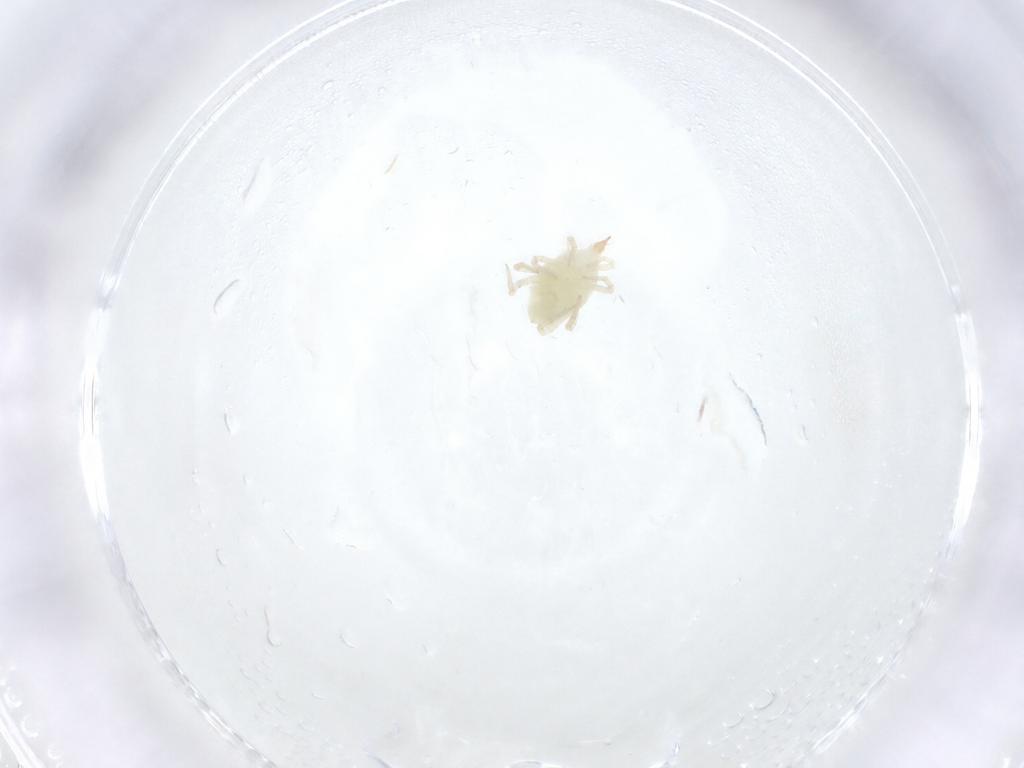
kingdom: Animalia
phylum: Arthropoda
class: Arachnida
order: Trombidiformes
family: Bdellidae
